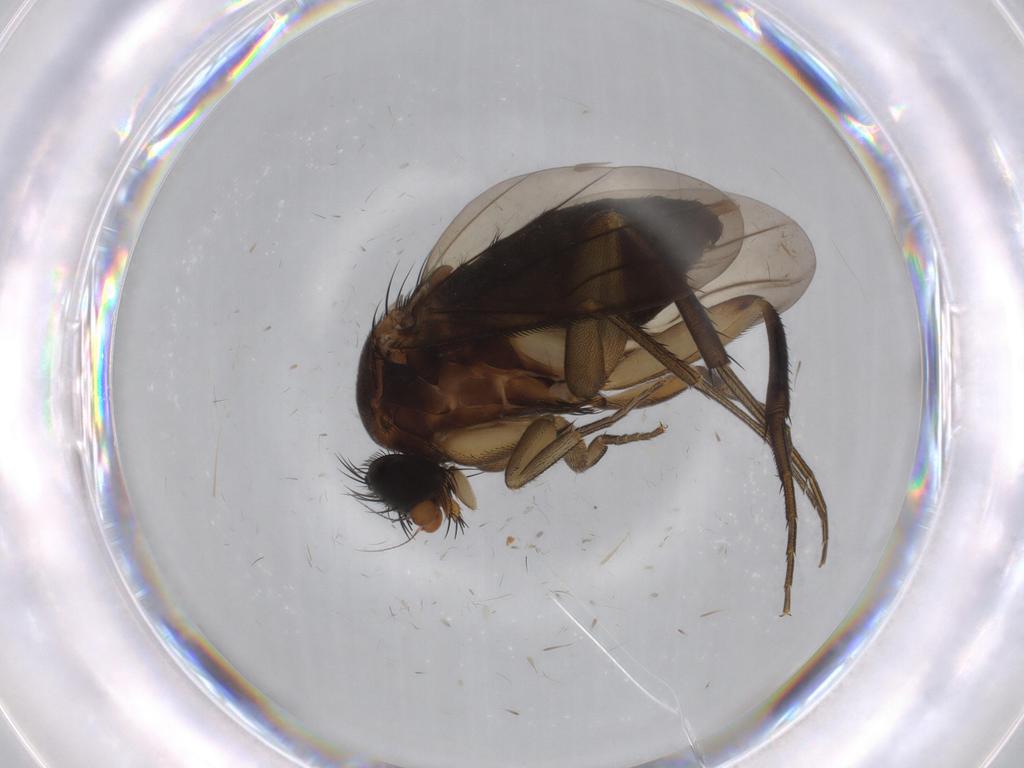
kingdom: Animalia
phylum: Arthropoda
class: Insecta
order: Diptera
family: Phoridae
